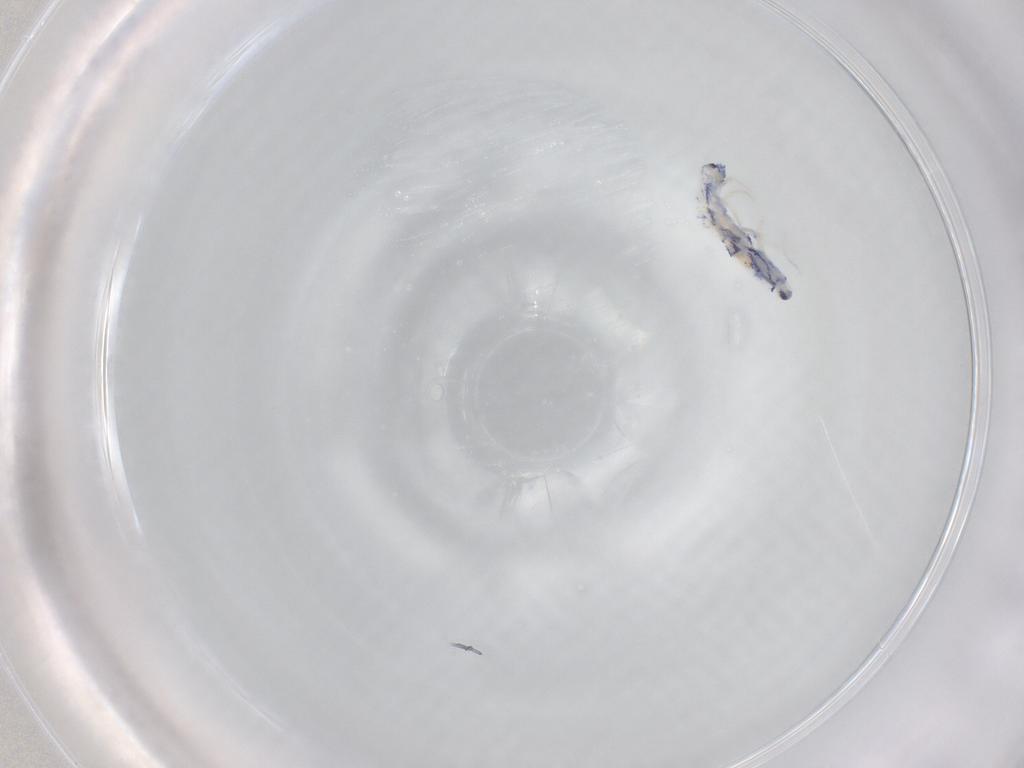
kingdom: Animalia
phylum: Arthropoda
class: Collembola
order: Entomobryomorpha
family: Entomobryidae
